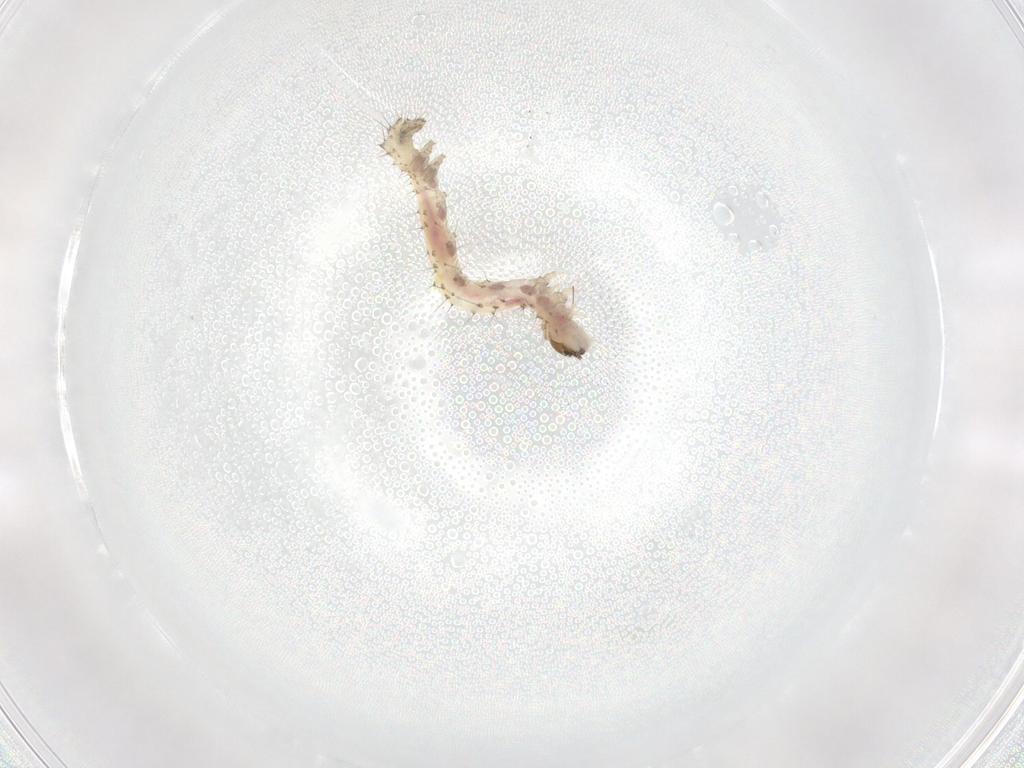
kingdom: Animalia
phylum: Arthropoda
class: Insecta
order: Lepidoptera
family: Erebidae
